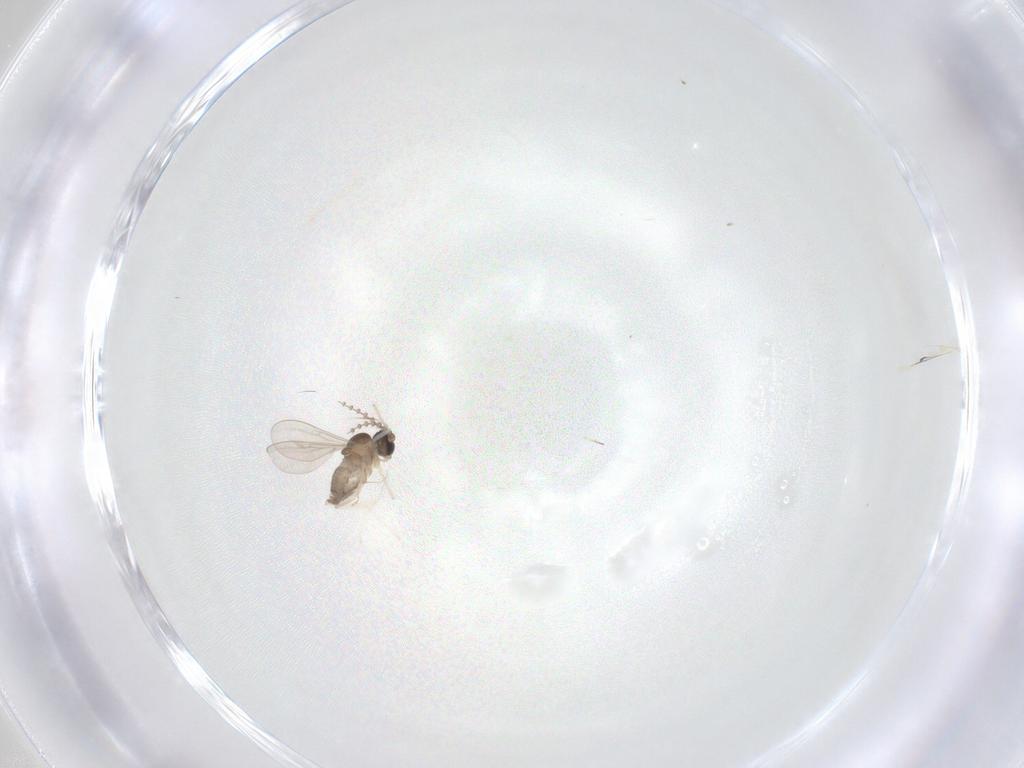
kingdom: Animalia
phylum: Arthropoda
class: Insecta
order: Diptera
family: Cecidomyiidae
